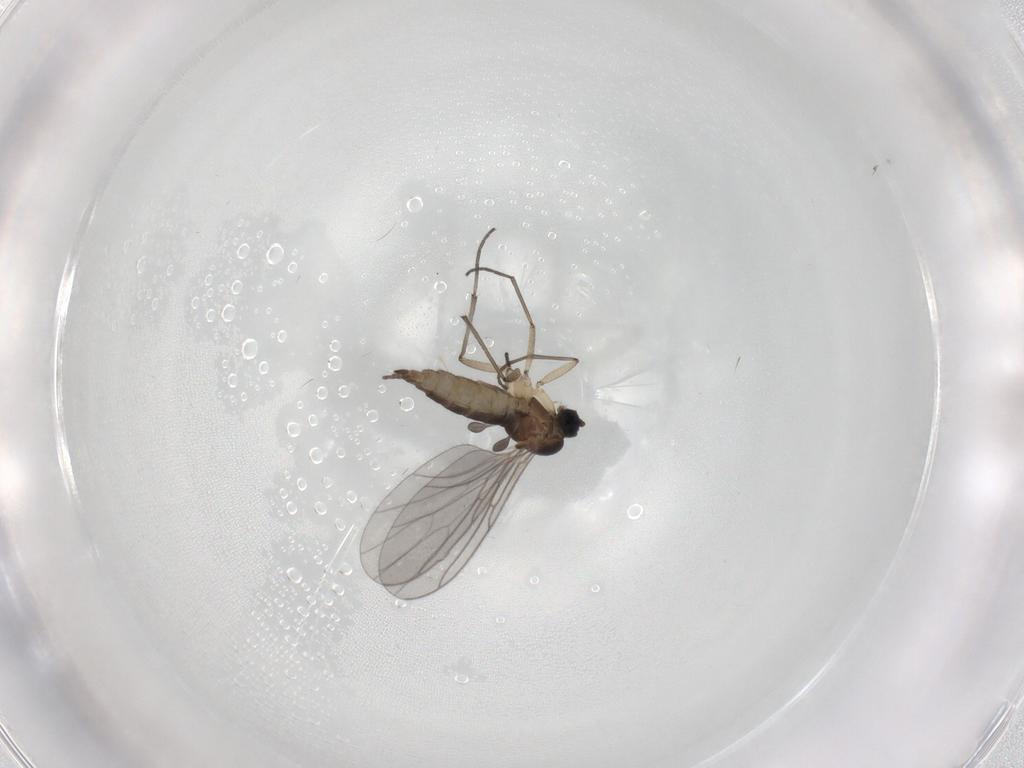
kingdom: Animalia
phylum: Arthropoda
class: Insecta
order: Diptera
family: Sciaridae
